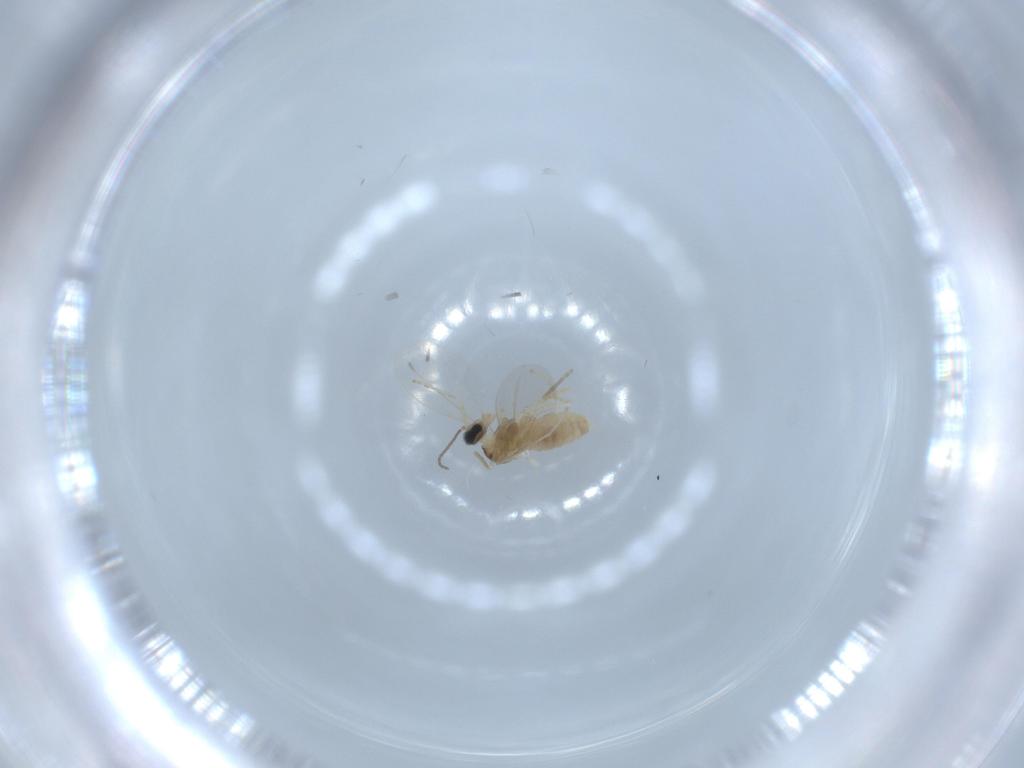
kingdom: Animalia
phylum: Arthropoda
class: Insecta
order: Diptera
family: Cecidomyiidae
